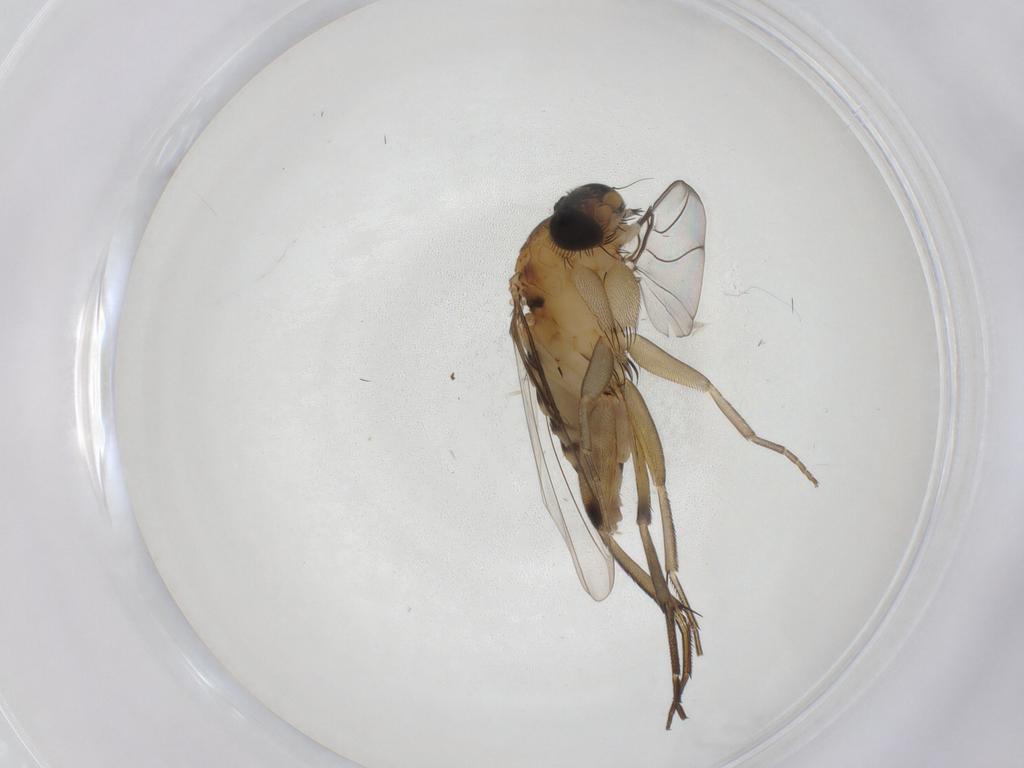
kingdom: Animalia
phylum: Arthropoda
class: Insecta
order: Diptera
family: Phoridae
